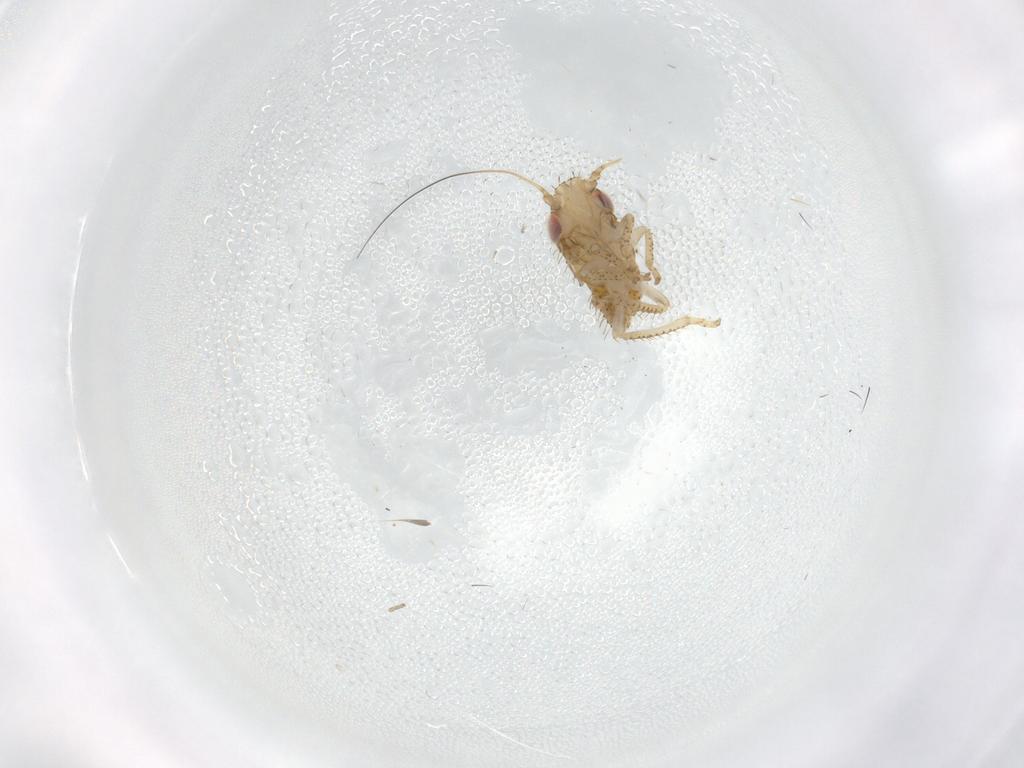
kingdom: Animalia
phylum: Arthropoda
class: Insecta
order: Hemiptera
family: Cicadellidae
